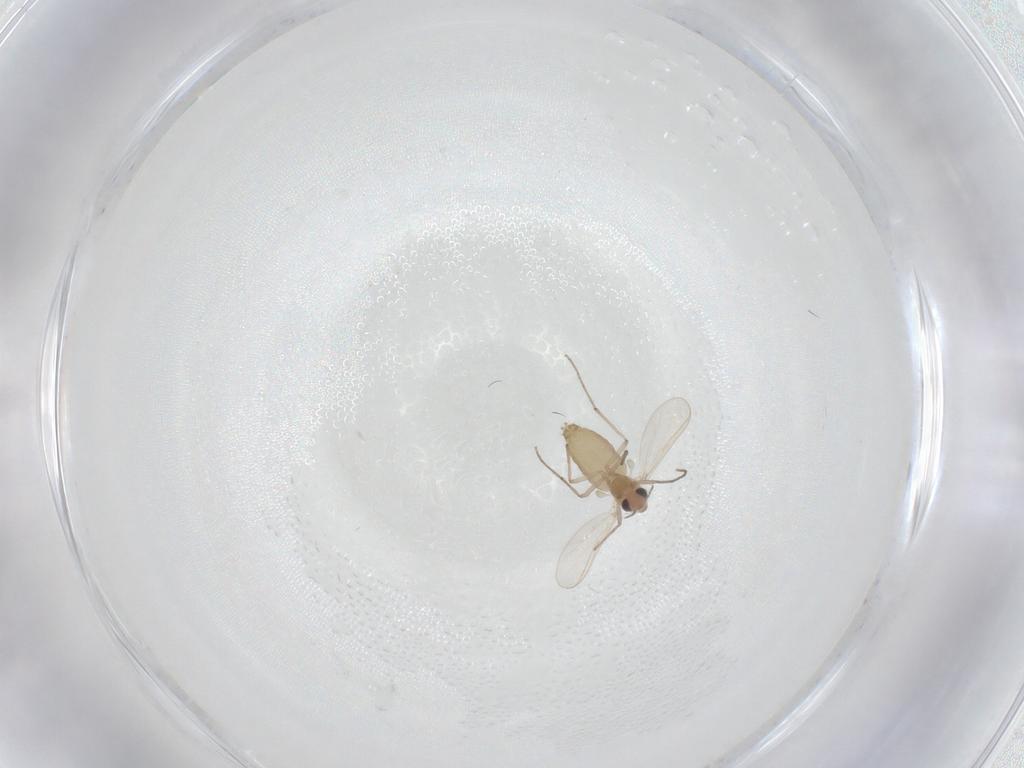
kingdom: Animalia
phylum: Arthropoda
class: Insecta
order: Diptera
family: Chironomidae
